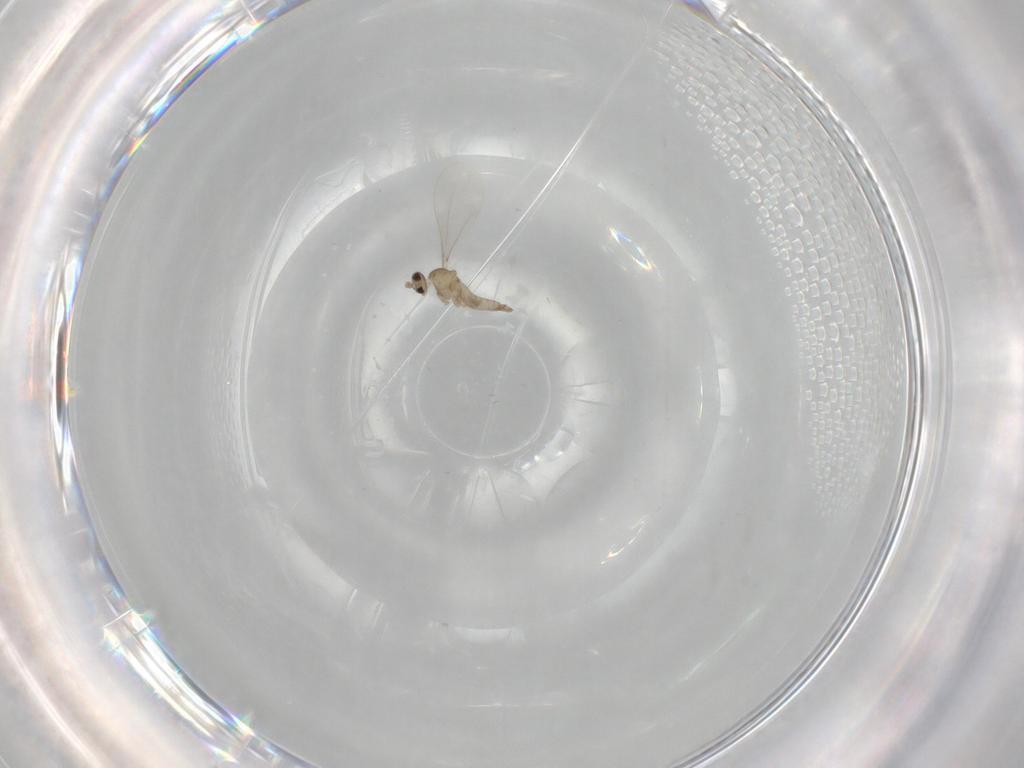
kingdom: Animalia
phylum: Arthropoda
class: Insecta
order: Diptera
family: Cecidomyiidae
